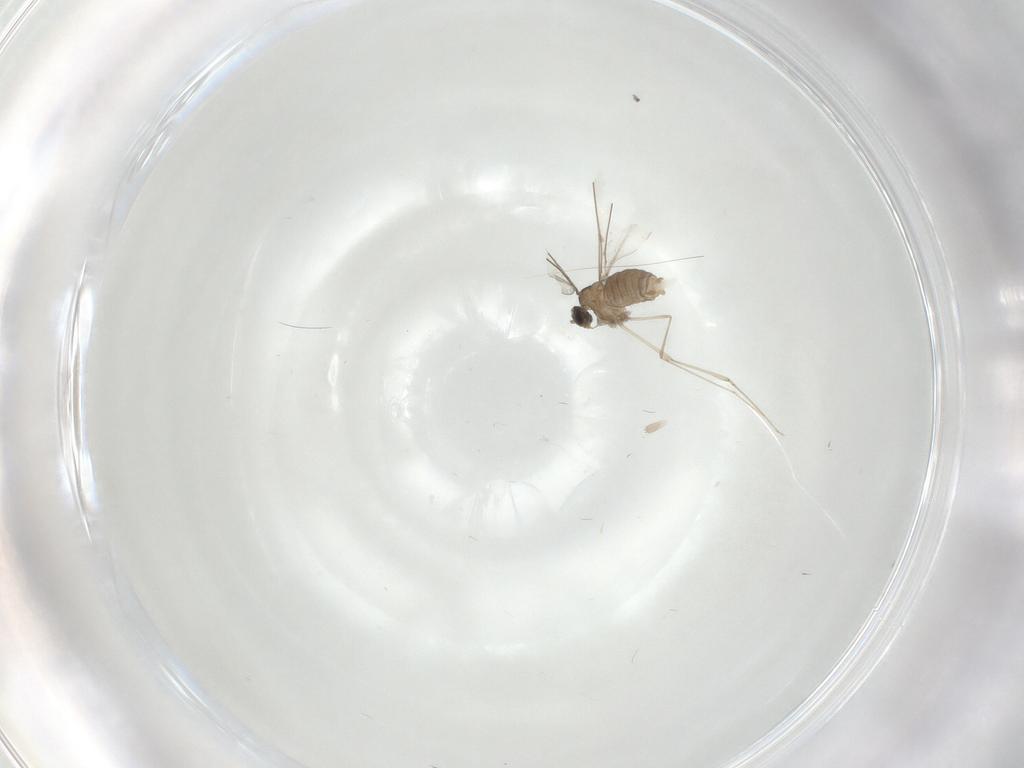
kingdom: Animalia
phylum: Arthropoda
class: Insecta
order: Diptera
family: Cecidomyiidae
